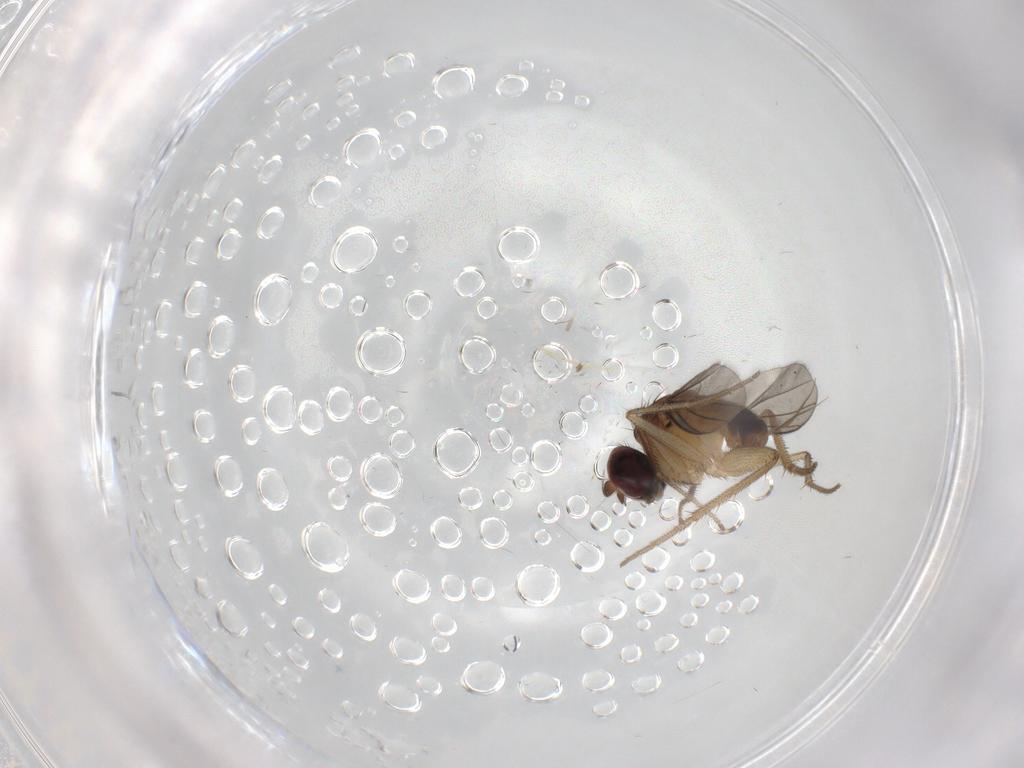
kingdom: Animalia
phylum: Arthropoda
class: Insecta
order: Diptera
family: Dolichopodidae
